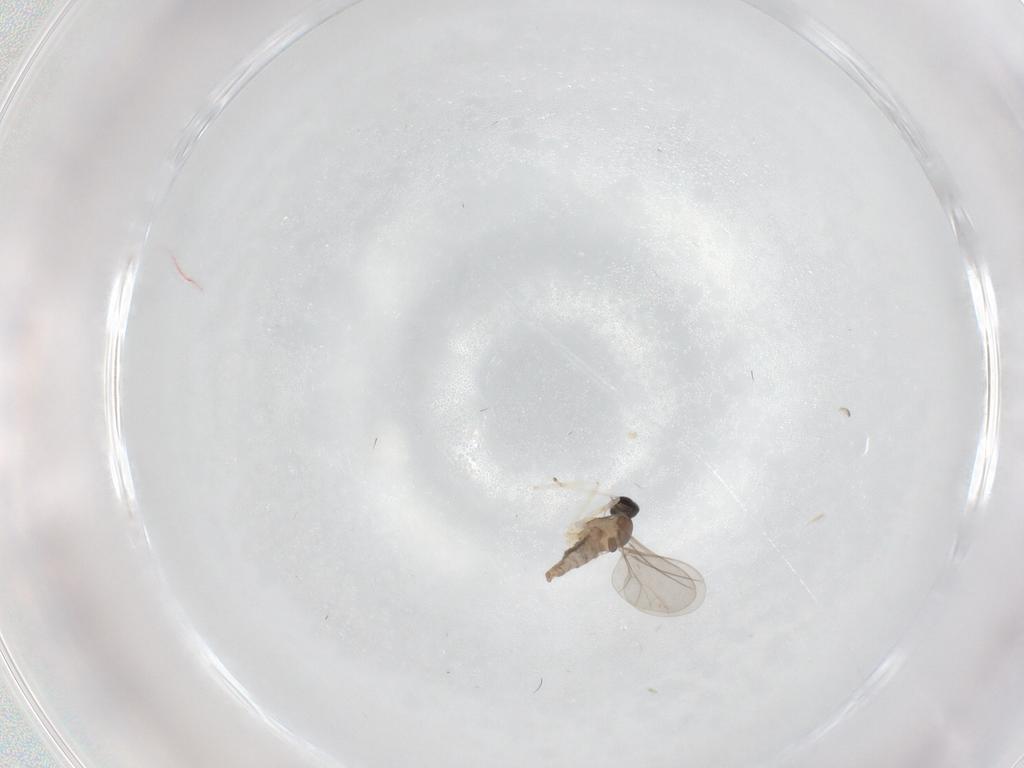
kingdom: Animalia
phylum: Arthropoda
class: Insecta
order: Diptera
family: Cecidomyiidae
